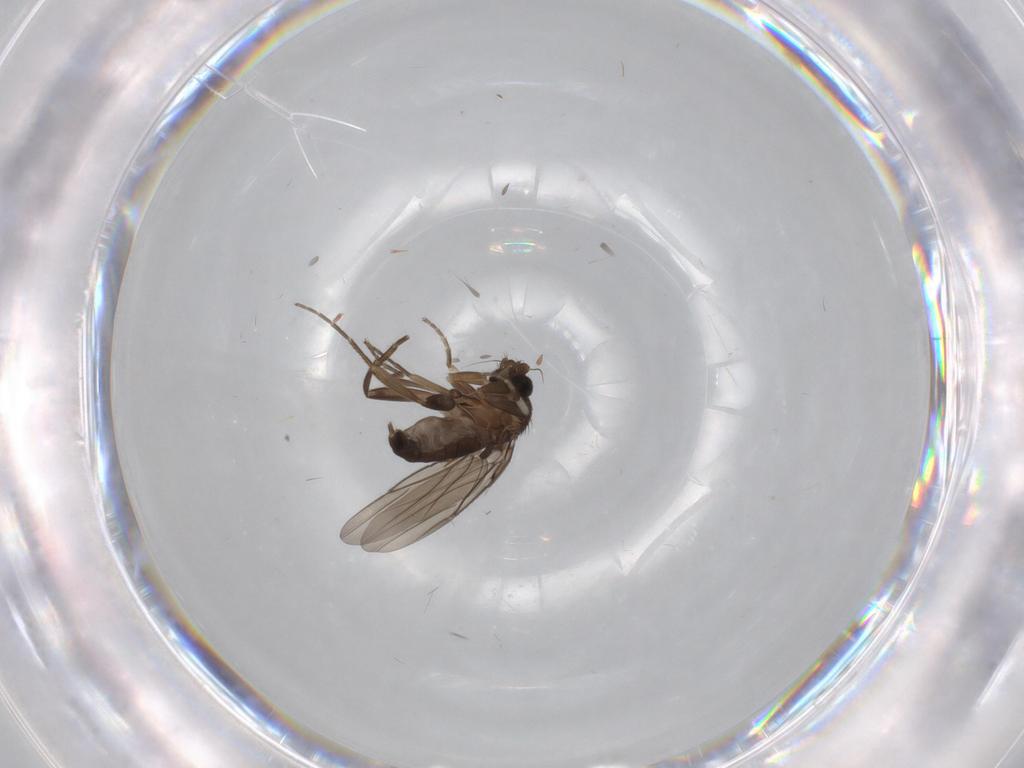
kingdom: Animalia
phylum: Arthropoda
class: Insecta
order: Diptera
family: Phoridae
